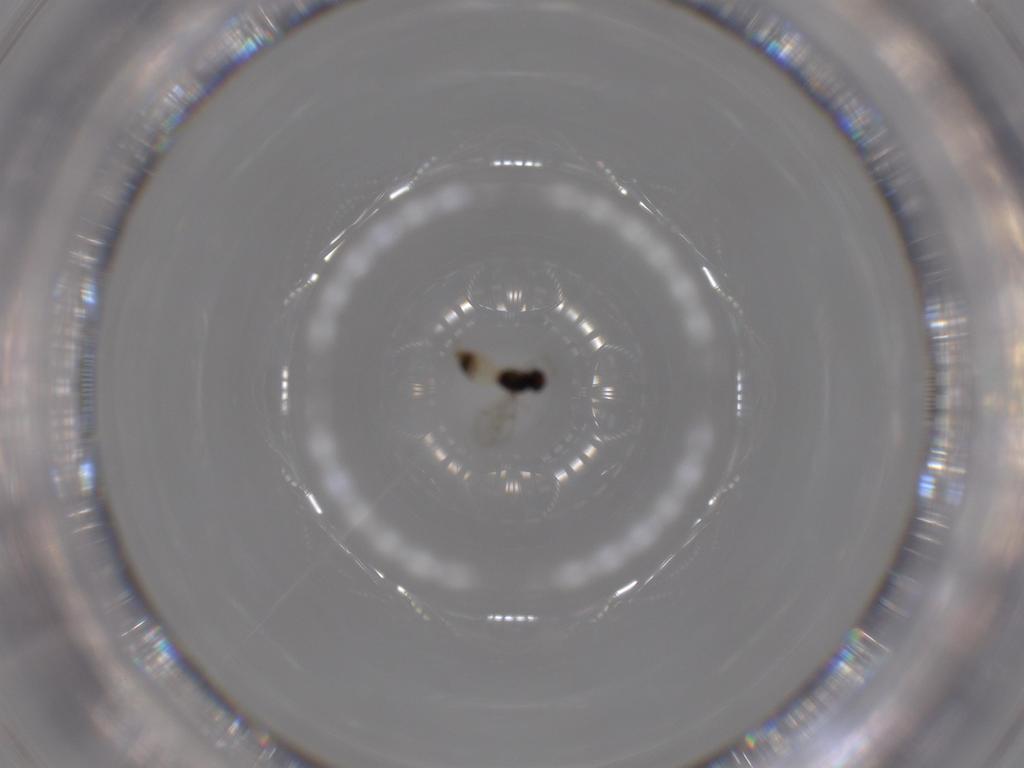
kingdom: Animalia
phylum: Arthropoda
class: Insecta
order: Hymenoptera
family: Eulophidae
